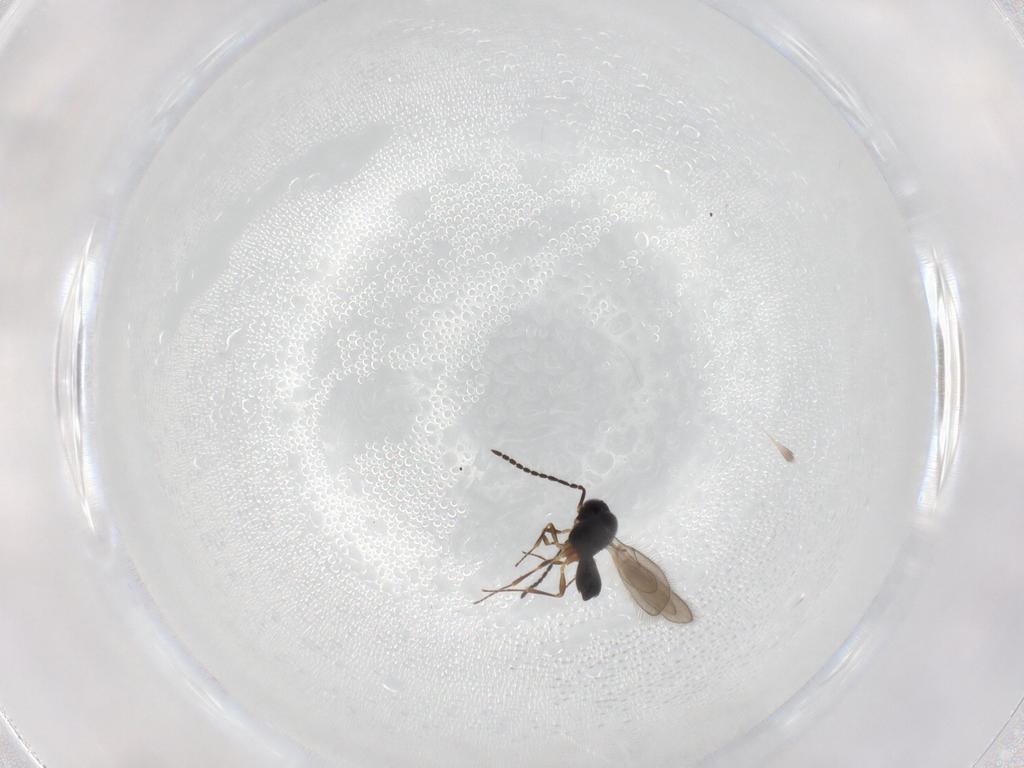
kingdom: Animalia
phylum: Arthropoda
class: Insecta
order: Hymenoptera
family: Scelionidae
